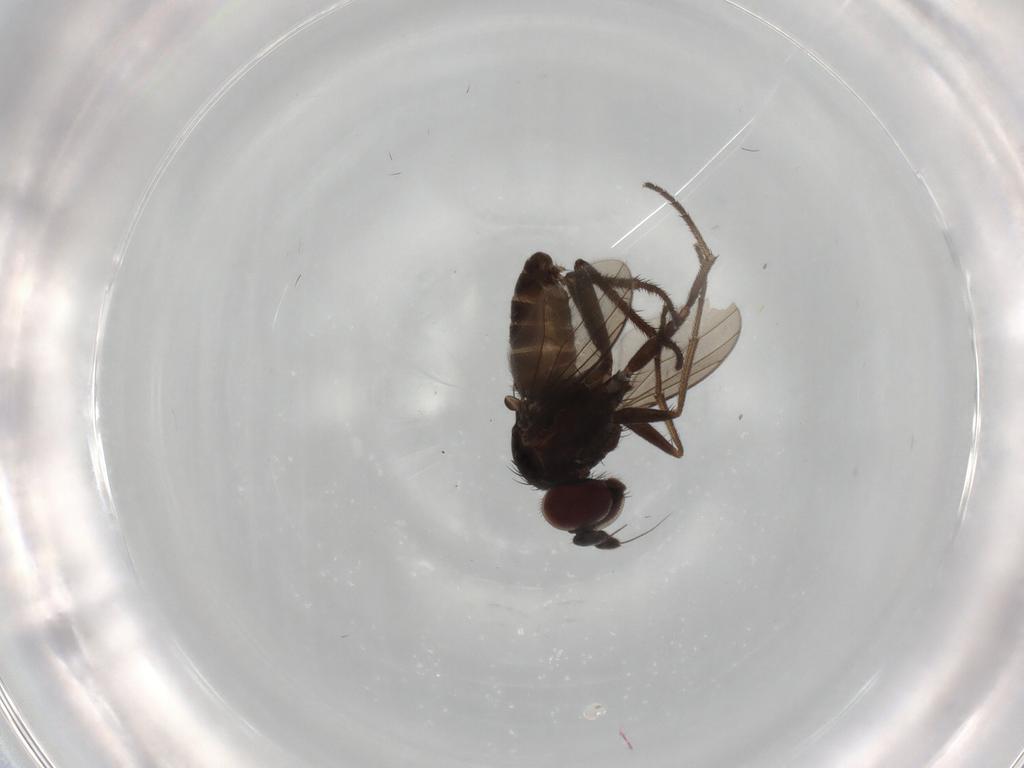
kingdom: Animalia
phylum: Arthropoda
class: Insecta
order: Diptera
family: Dolichopodidae
